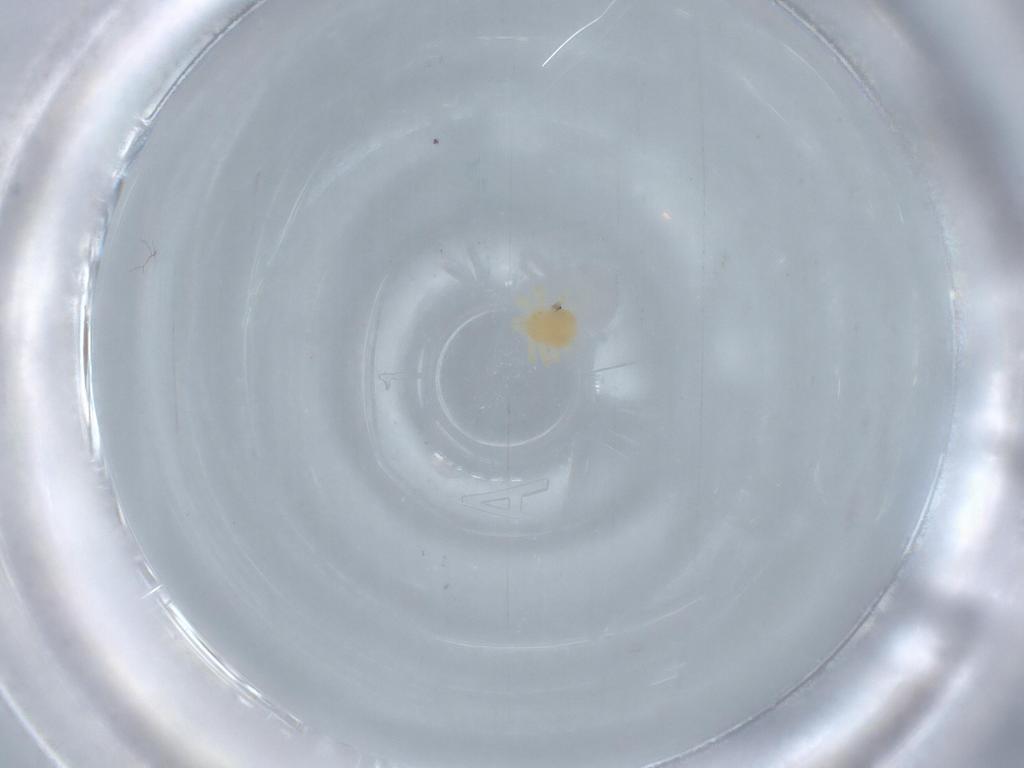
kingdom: Animalia
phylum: Arthropoda
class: Arachnida
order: Sarcoptiformes
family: Oribatellidae
